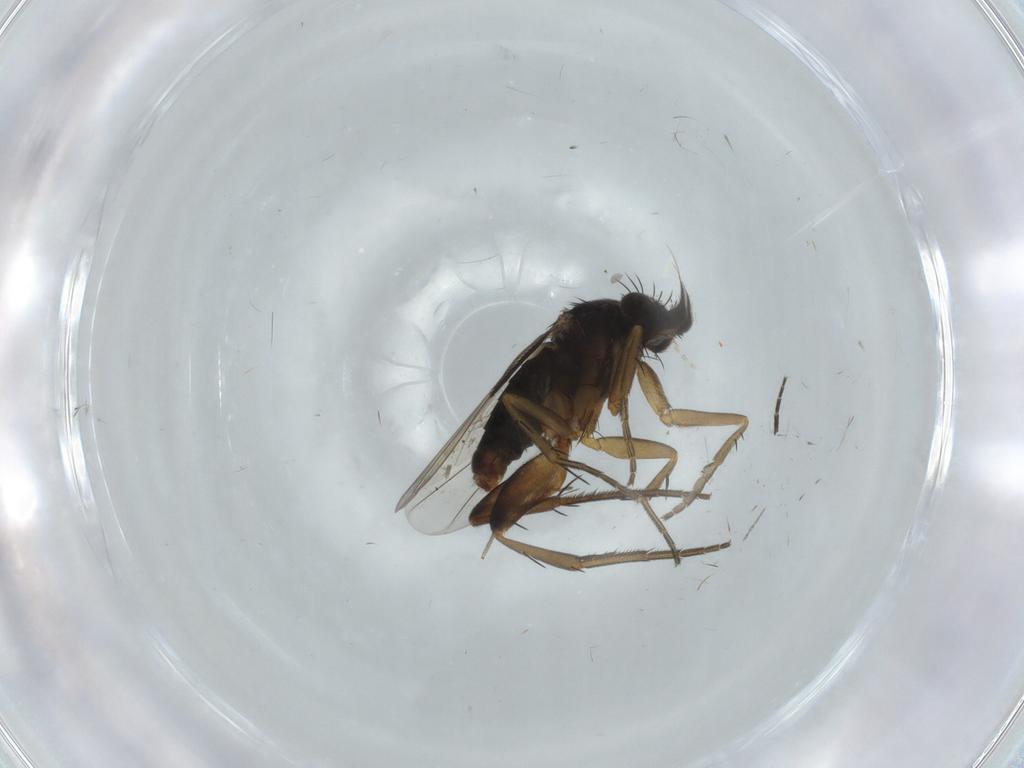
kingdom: Animalia
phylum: Arthropoda
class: Insecta
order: Diptera
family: Phoridae
